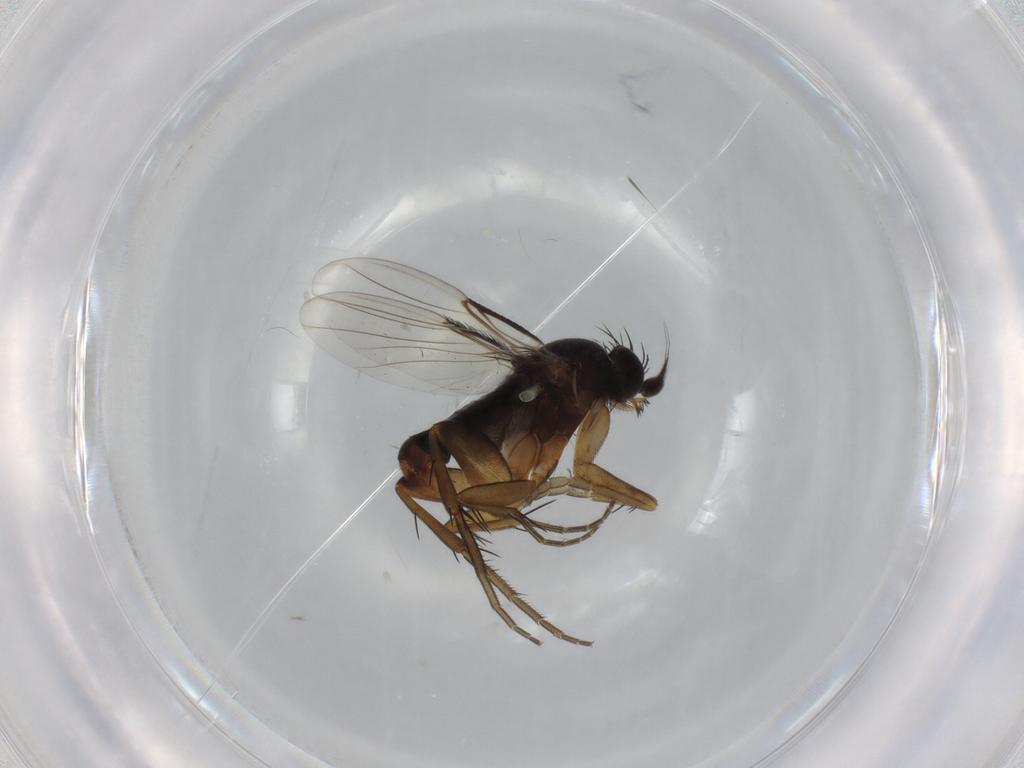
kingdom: Animalia
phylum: Arthropoda
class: Insecta
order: Diptera
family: Phoridae
